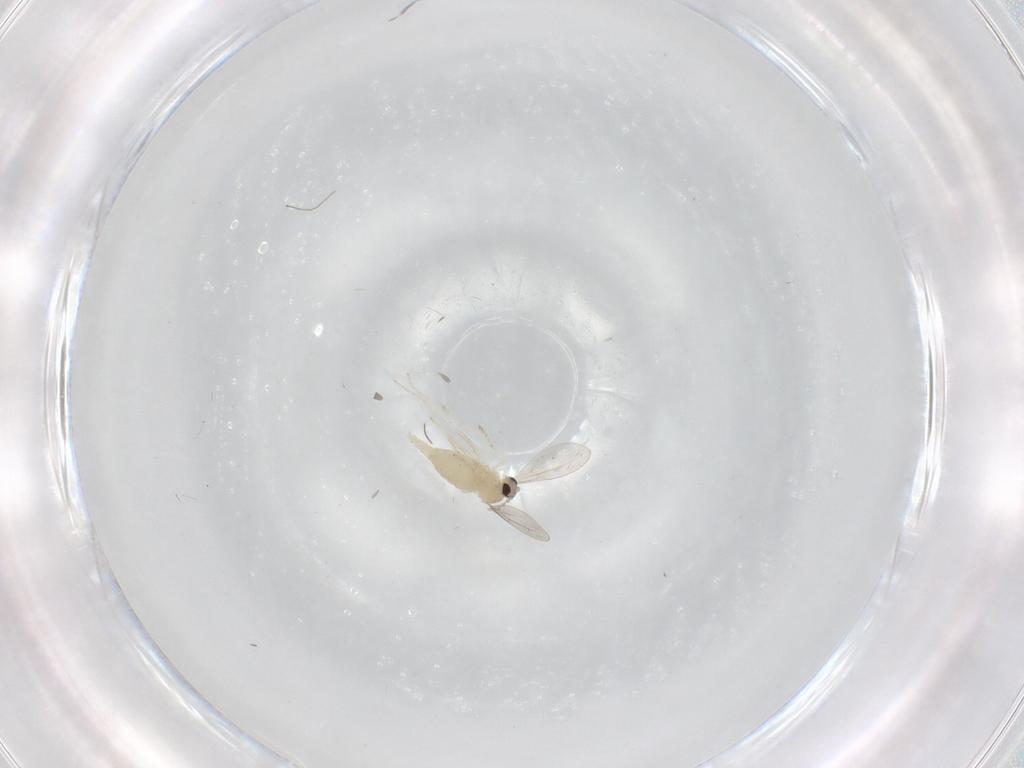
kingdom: Animalia
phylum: Arthropoda
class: Insecta
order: Diptera
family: Cecidomyiidae
